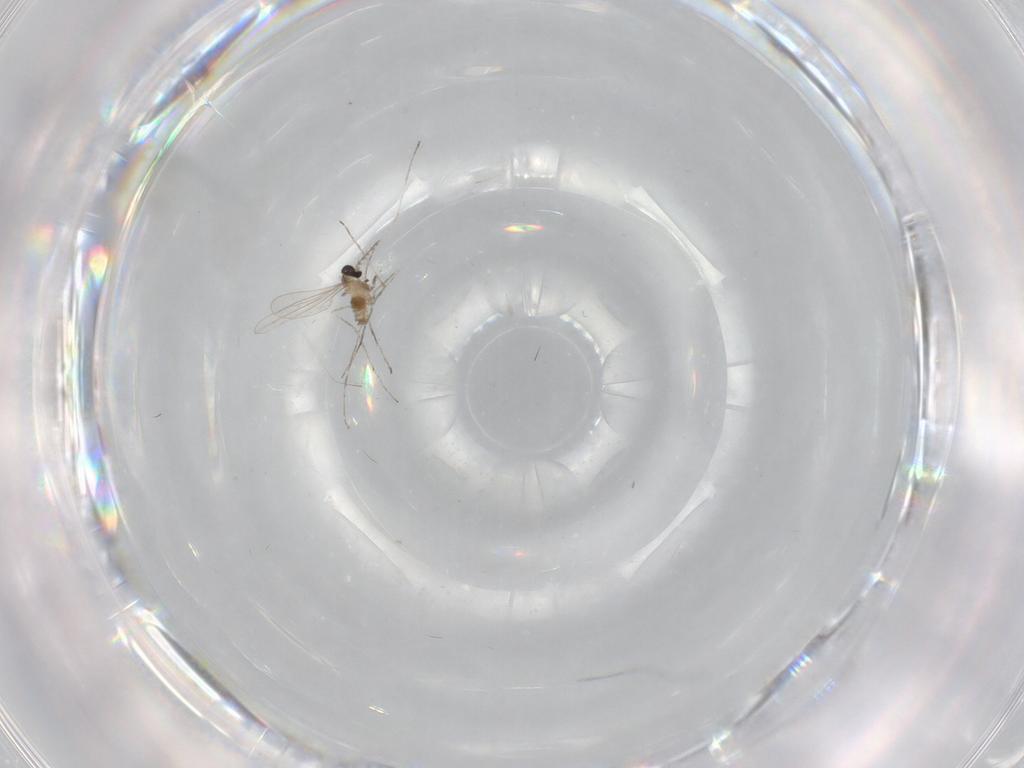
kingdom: Animalia
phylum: Arthropoda
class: Insecta
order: Diptera
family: Cecidomyiidae
